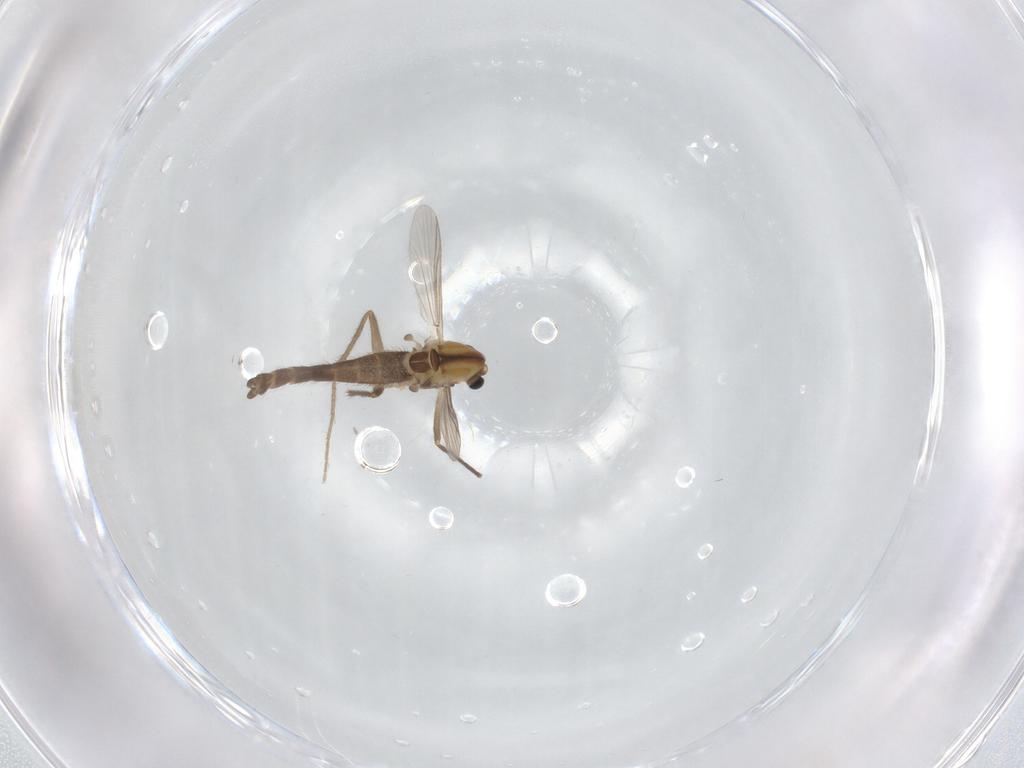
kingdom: Animalia
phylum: Arthropoda
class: Insecta
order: Diptera
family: Chironomidae
